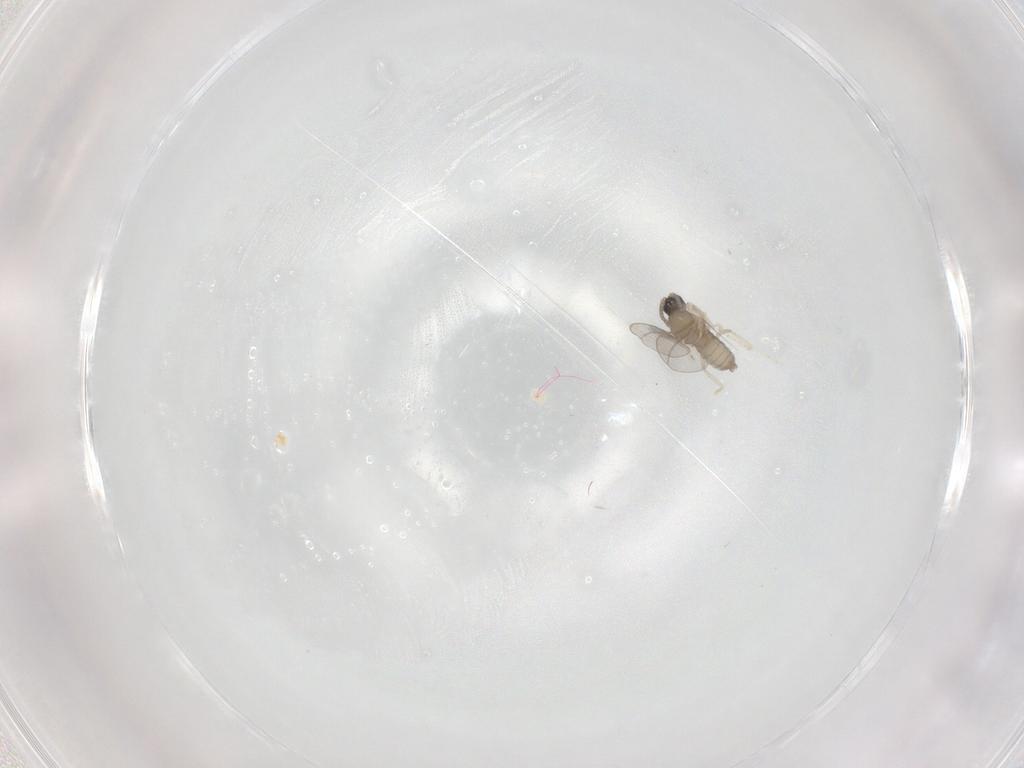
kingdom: Animalia
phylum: Arthropoda
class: Insecta
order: Diptera
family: Cecidomyiidae
